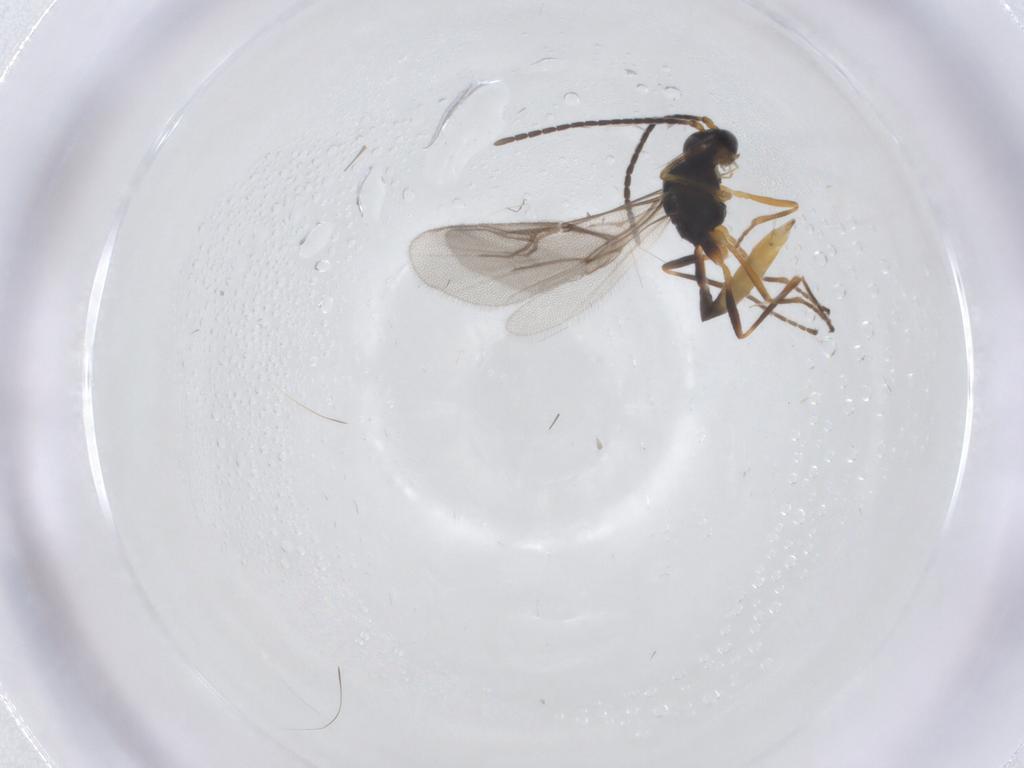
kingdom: Animalia
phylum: Arthropoda
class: Insecta
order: Hymenoptera
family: Braconidae
